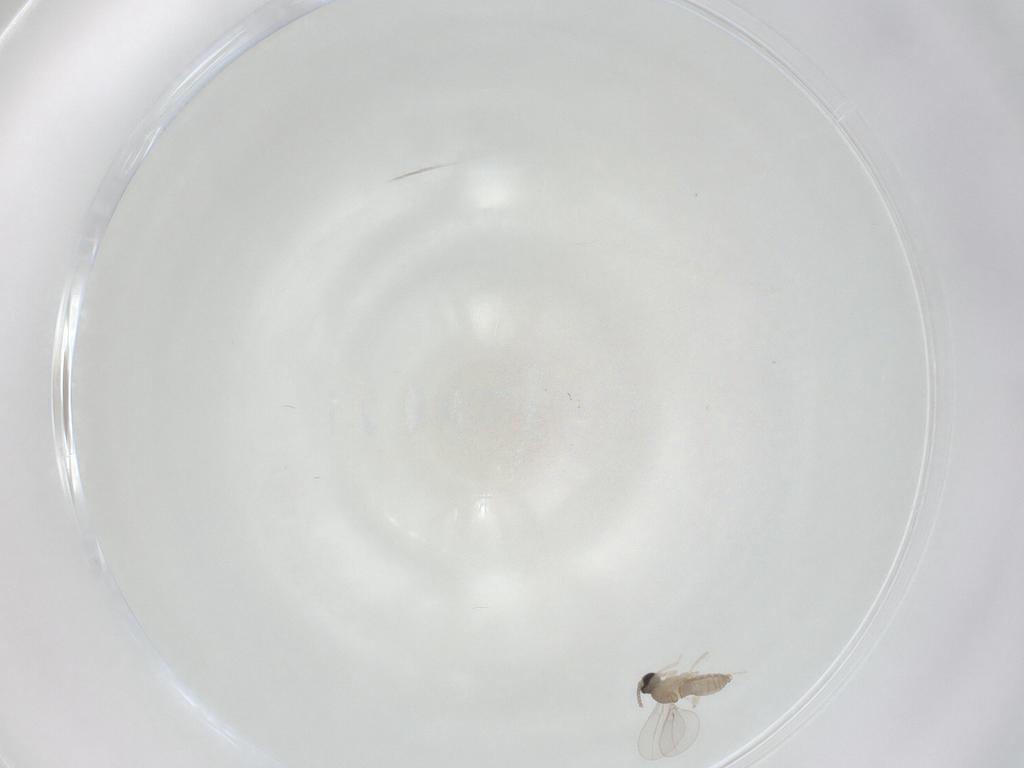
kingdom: Animalia
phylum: Arthropoda
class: Insecta
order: Diptera
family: Cecidomyiidae
